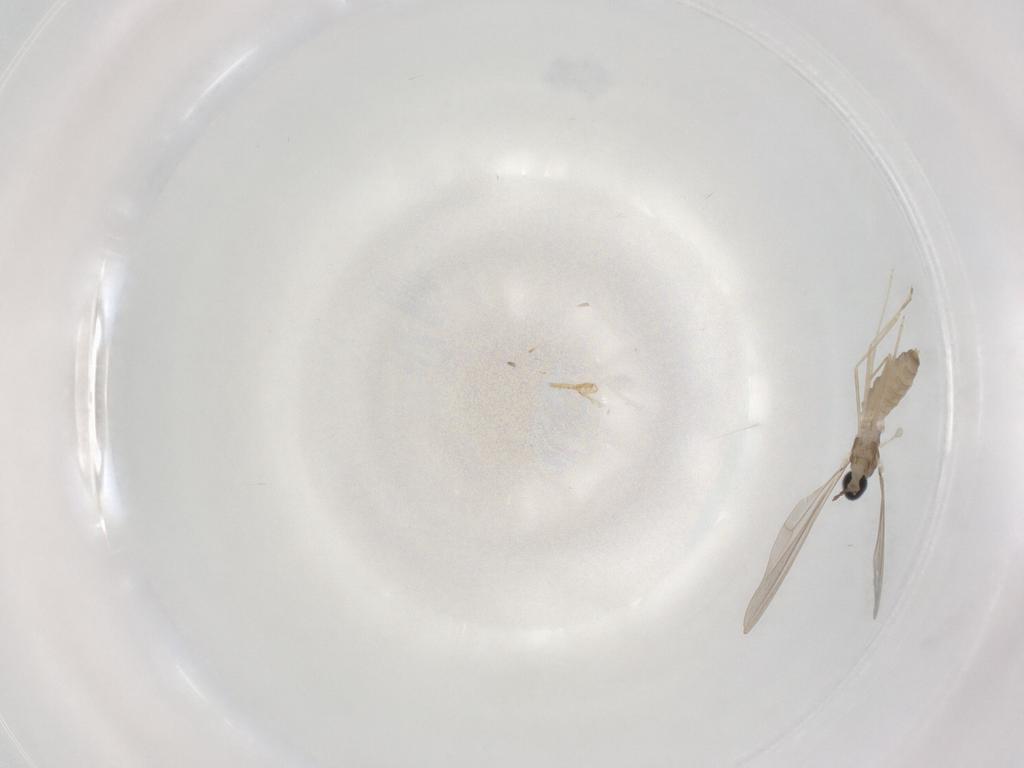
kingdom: Animalia
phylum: Arthropoda
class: Insecta
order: Diptera
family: Cecidomyiidae
